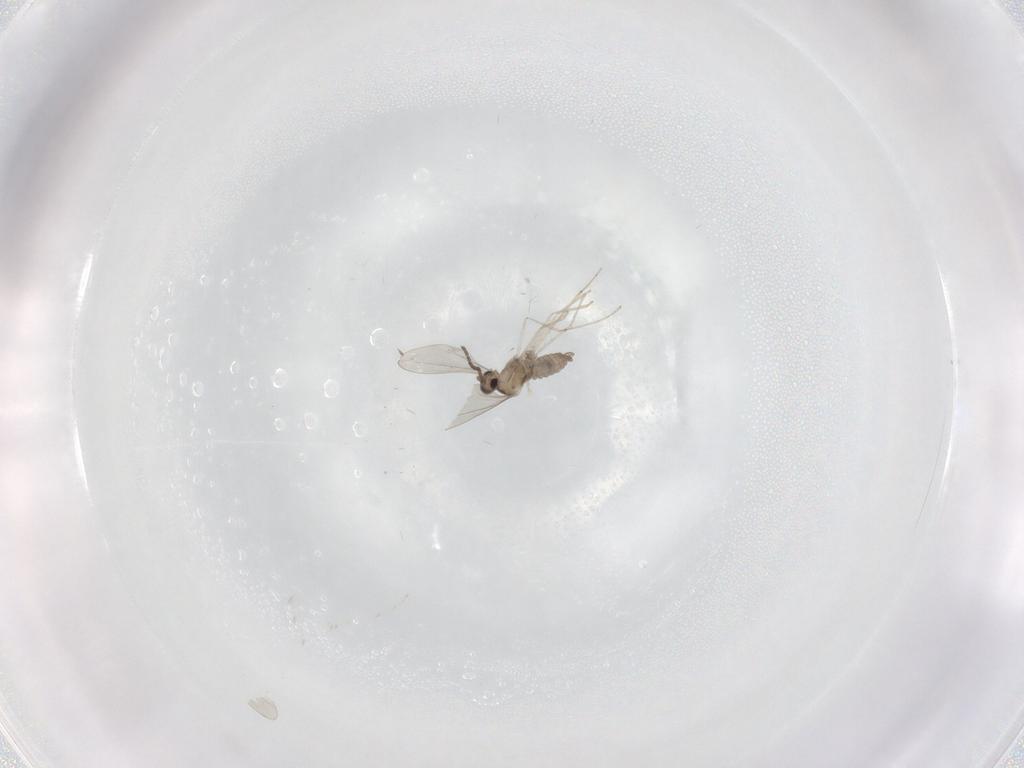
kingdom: Animalia
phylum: Arthropoda
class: Insecta
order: Diptera
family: Cecidomyiidae
